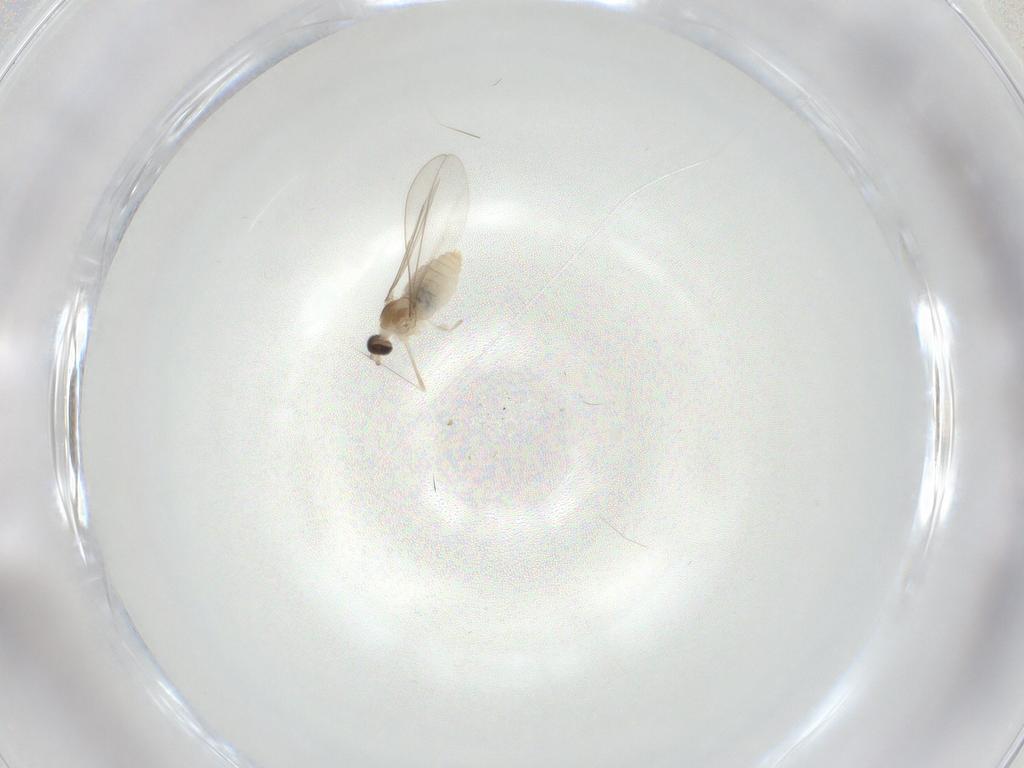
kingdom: Animalia
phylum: Arthropoda
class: Insecta
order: Diptera
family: Cecidomyiidae
